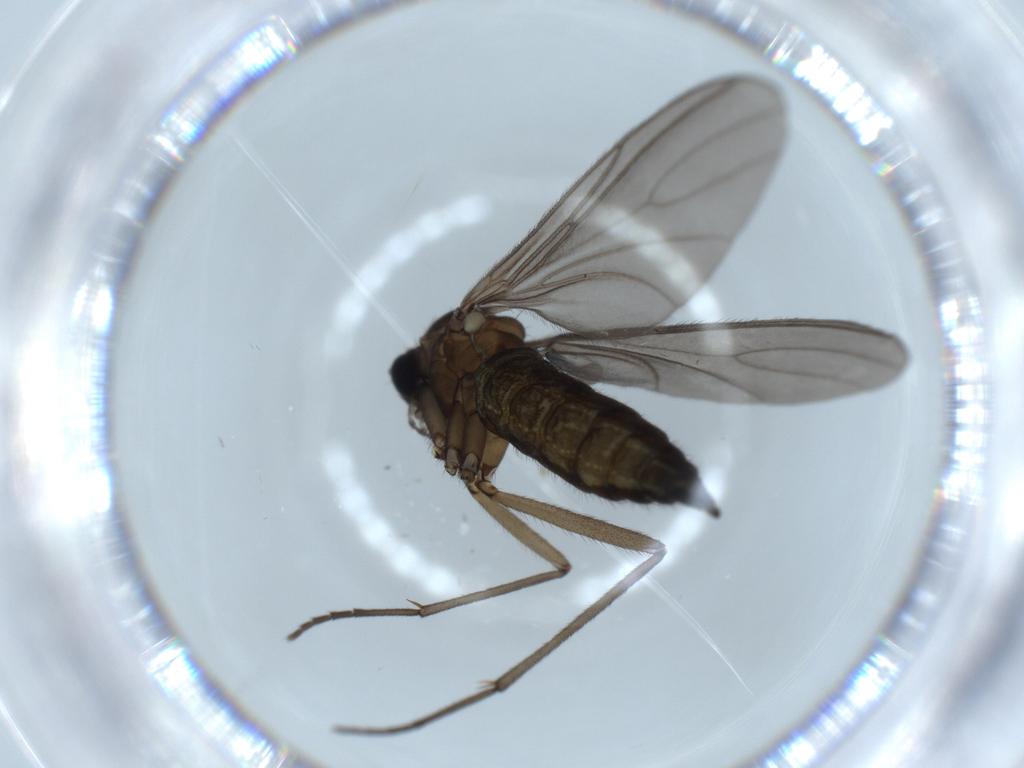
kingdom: Animalia
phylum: Arthropoda
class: Insecta
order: Diptera
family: Sciaridae
